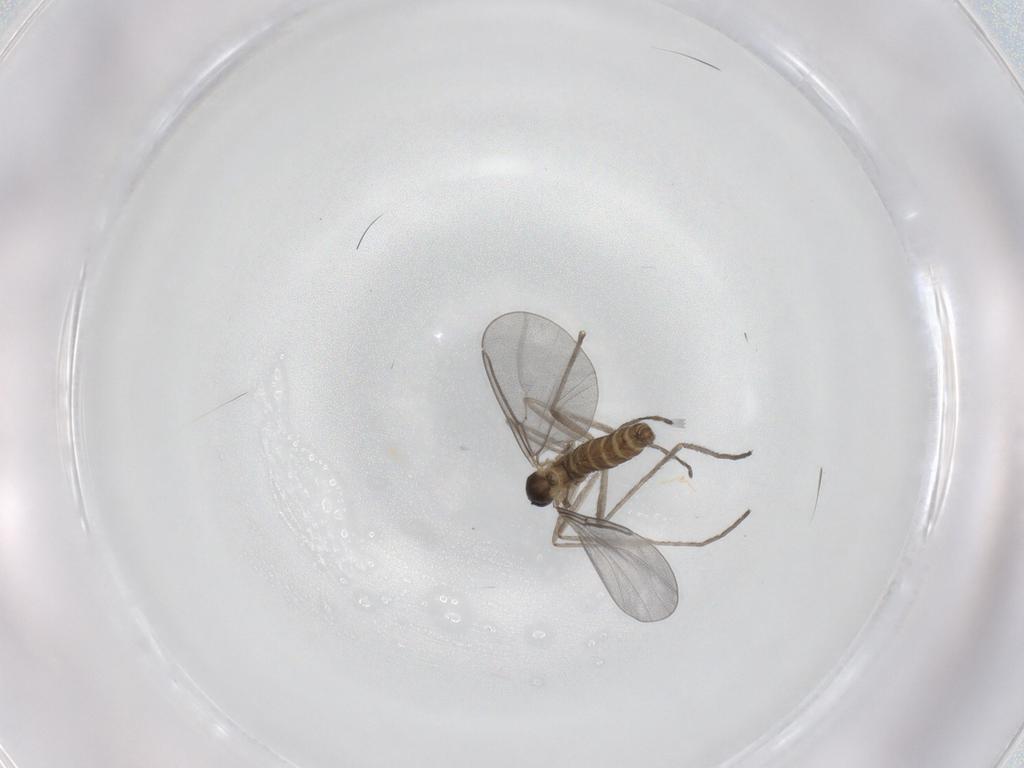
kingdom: Animalia
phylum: Arthropoda
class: Insecta
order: Diptera
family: Cecidomyiidae
